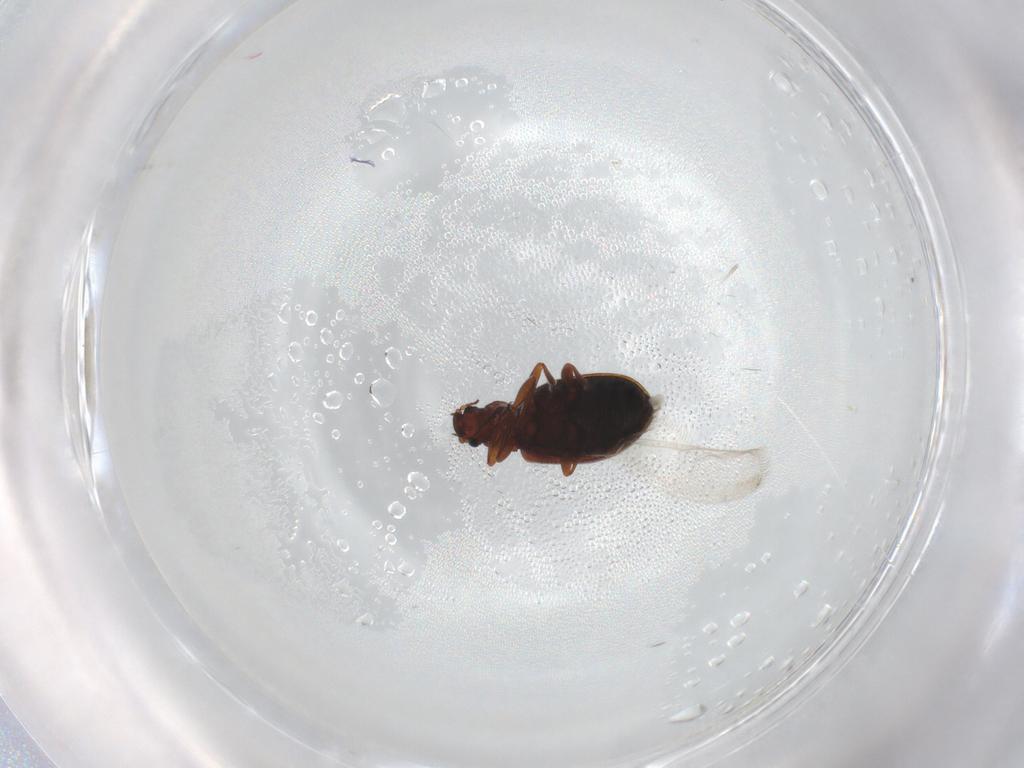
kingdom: Animalia
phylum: Arthropoda
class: Insecta
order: Coleoptera
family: Latridiidae
